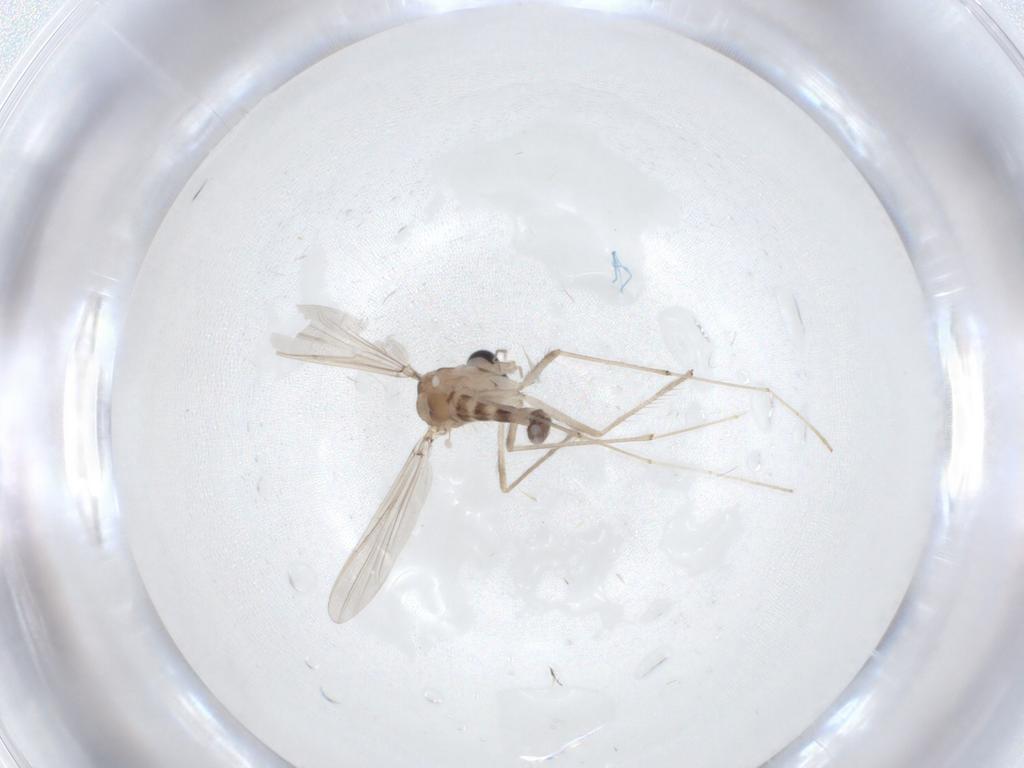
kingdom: Animalia
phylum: Arthropoda
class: Insecta
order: Diptera
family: Chironomidae
